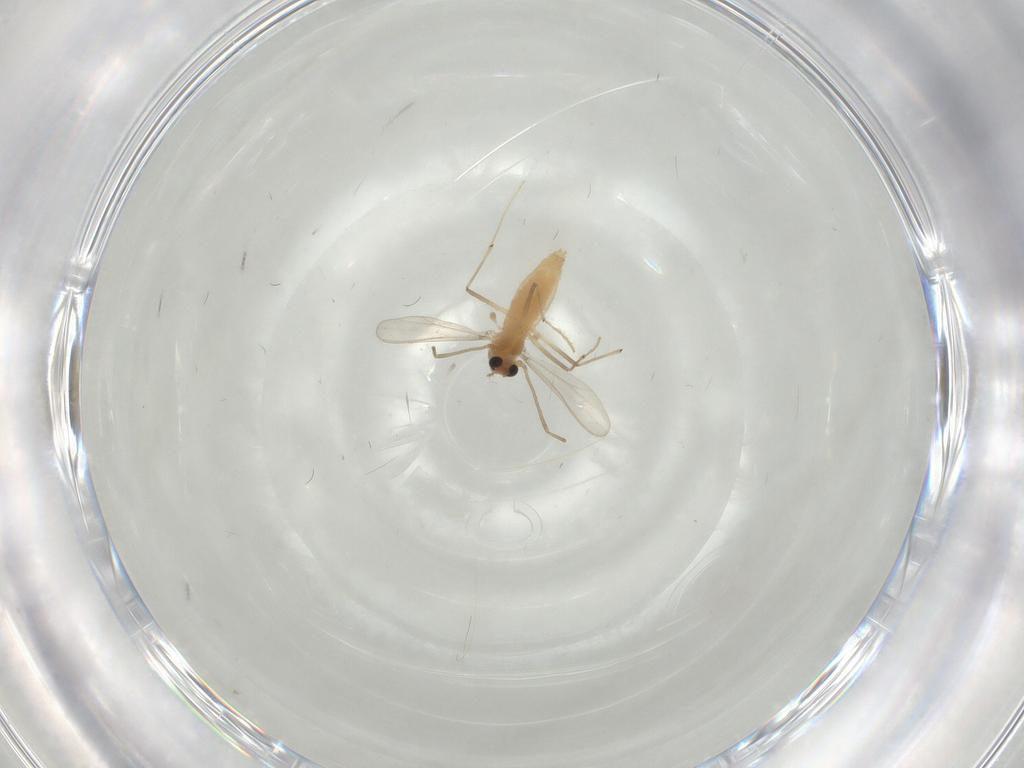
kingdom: Animalia
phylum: Arthropoda
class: Insecta
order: Diptera
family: Chironomidae
